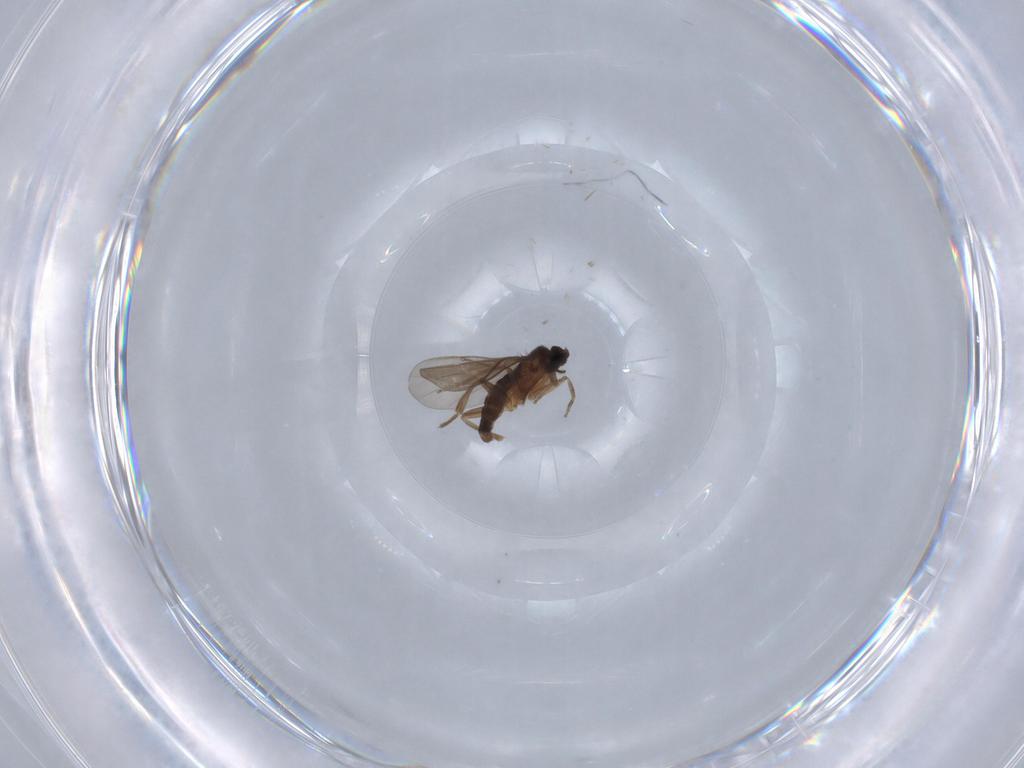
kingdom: Animalia
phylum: Arthropoda
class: Insecta
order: Diptera
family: Phoridae
